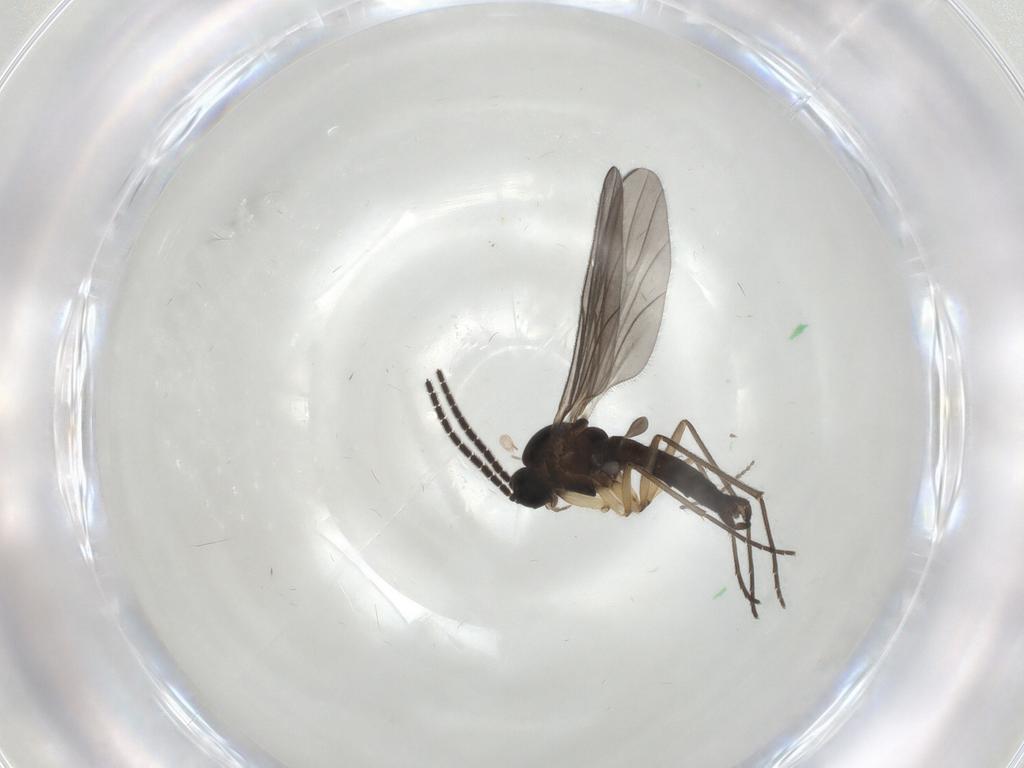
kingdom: Animalia
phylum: Arthropoda
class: Insecta
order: Diptera
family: Sciaridae
